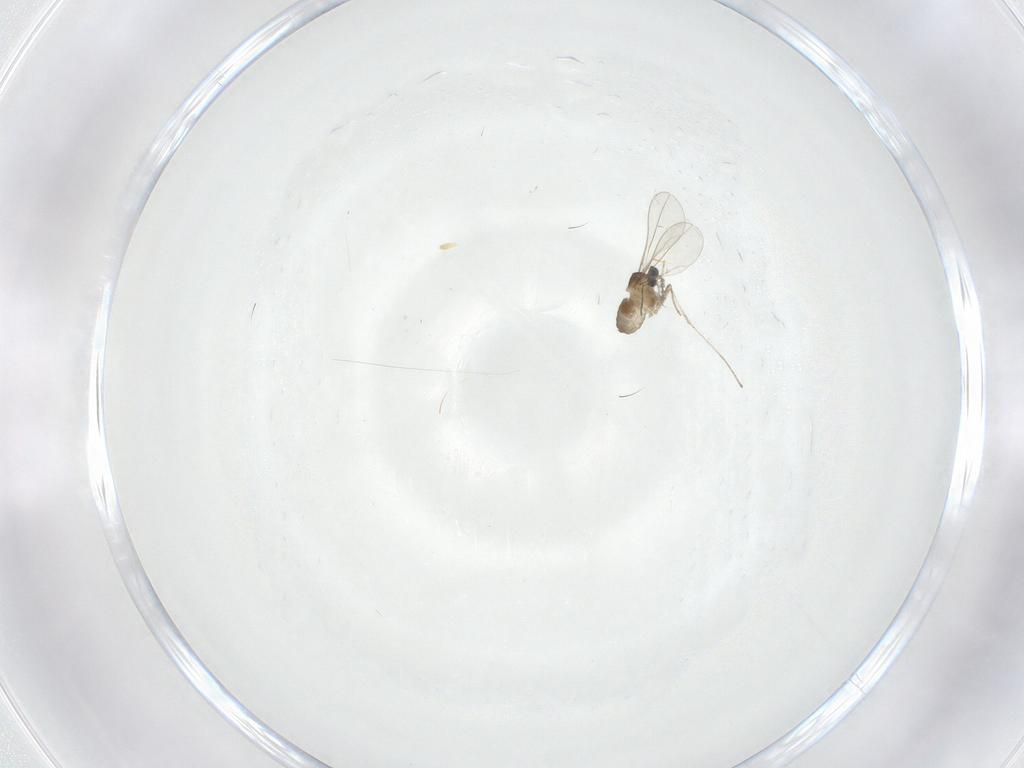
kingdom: Animalia
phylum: Arthropoda
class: Insecta
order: Diptera
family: Cecidomyiidae
